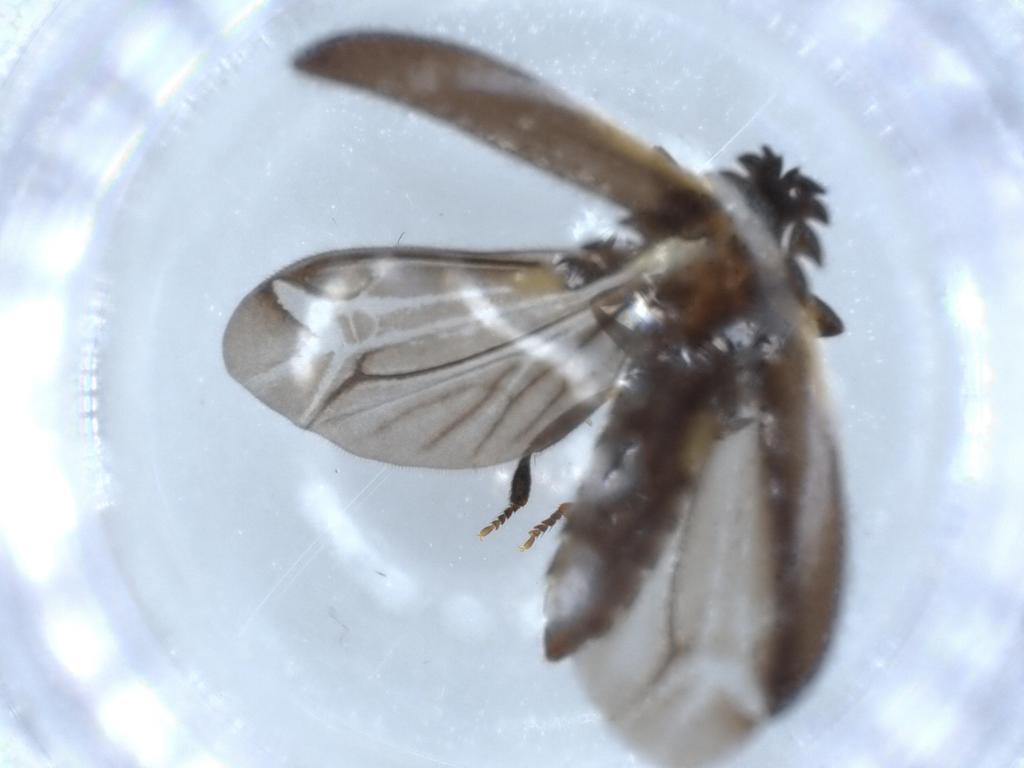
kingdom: Animalia
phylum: Arthropoda
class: Insecta
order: Coleoptera
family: Lycidae
